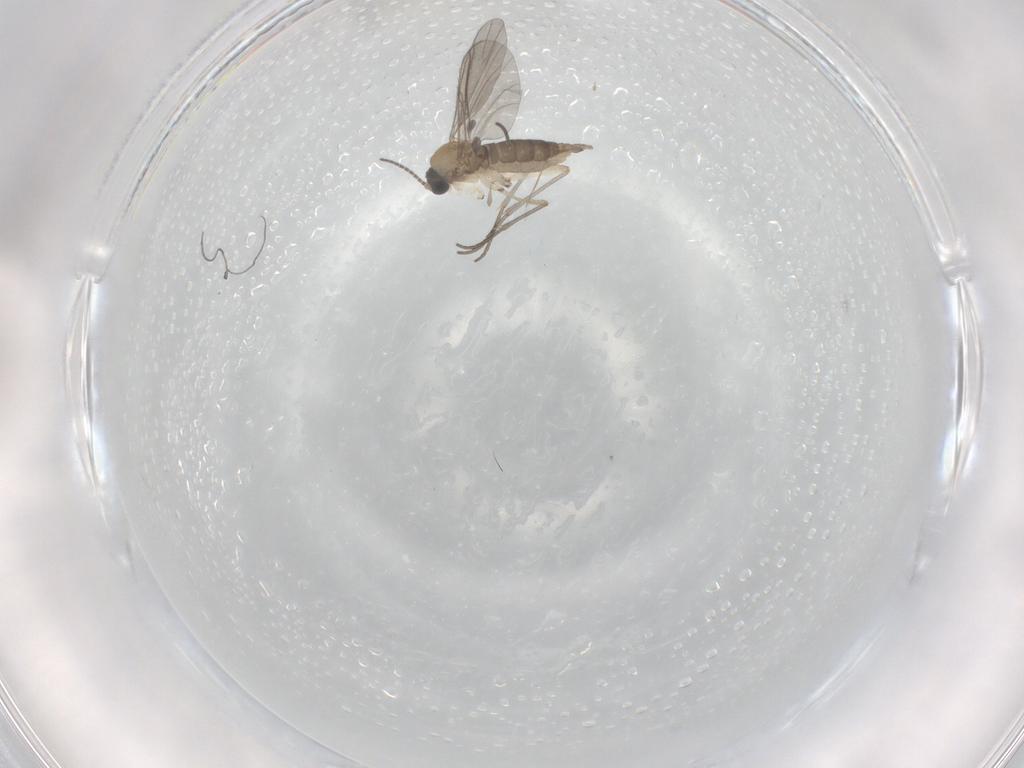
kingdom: Animalia
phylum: Arthropoda
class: Insecta
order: Diptera
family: Sciaridae
